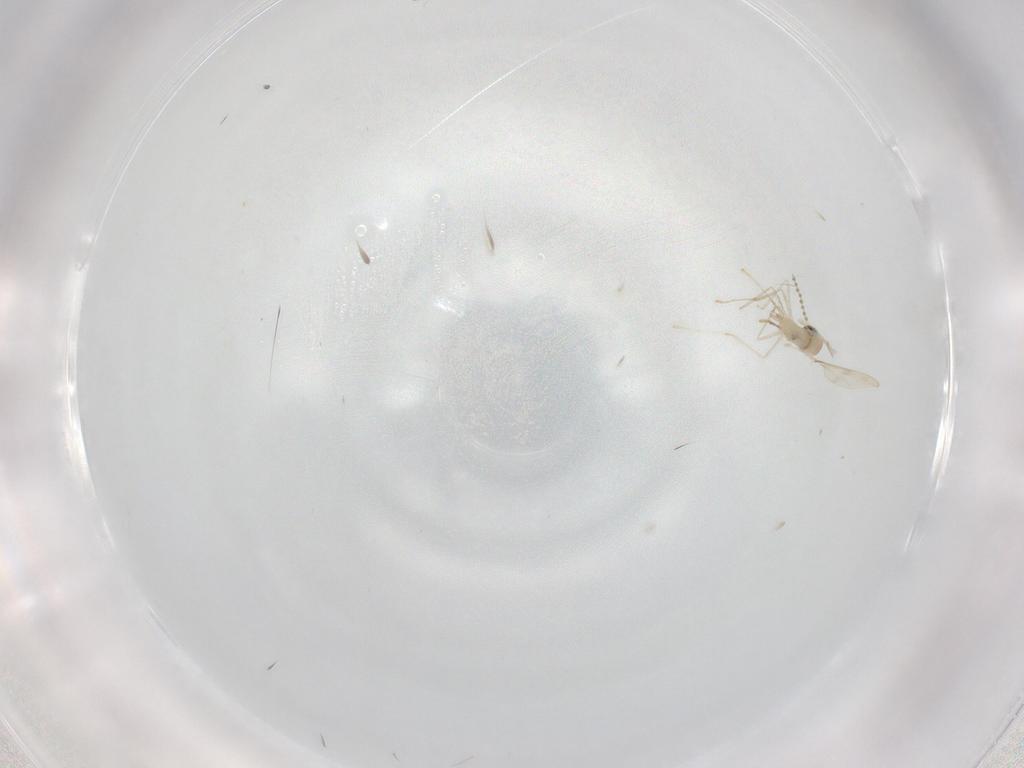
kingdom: Animalia
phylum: Arthropoda
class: Insecta
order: Diptera
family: Cecidomyiidae
